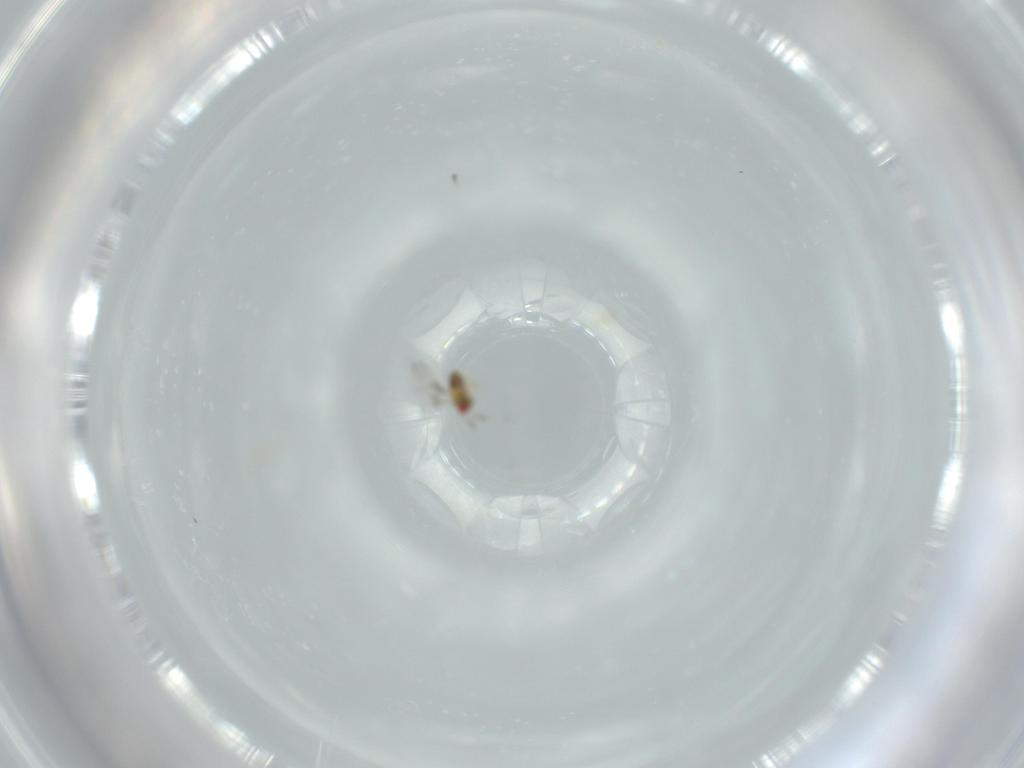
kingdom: Animalia
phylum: Arthropoda
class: Insecta
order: Hymenoptera
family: Trichogrammatidae
